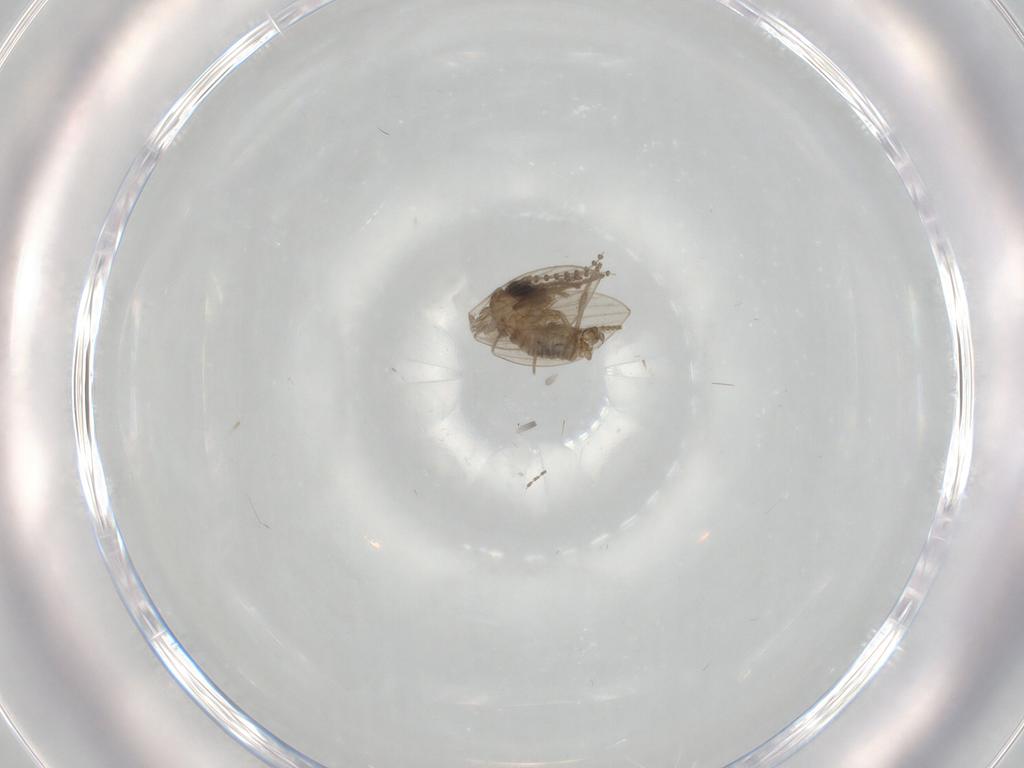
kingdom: Animalia
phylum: Arthropoda
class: Insecta
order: Diptera
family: Psychodidae
